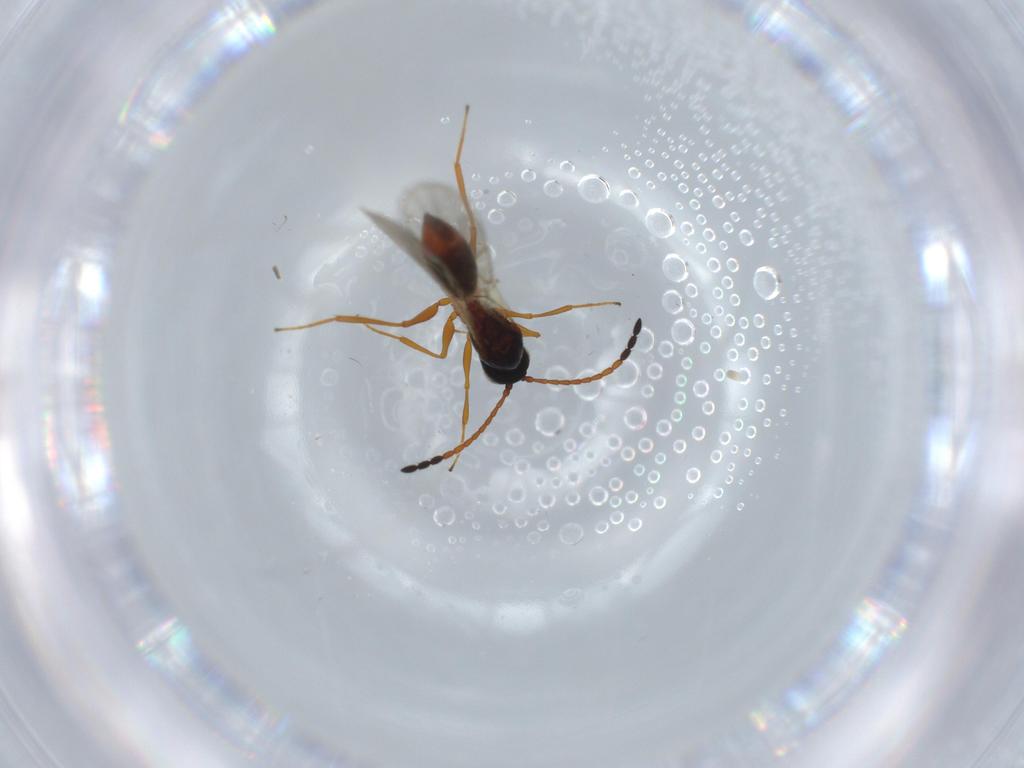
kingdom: Animalia
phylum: Arthropoda
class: Insecta
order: Hymenoptera
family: Figitidae
